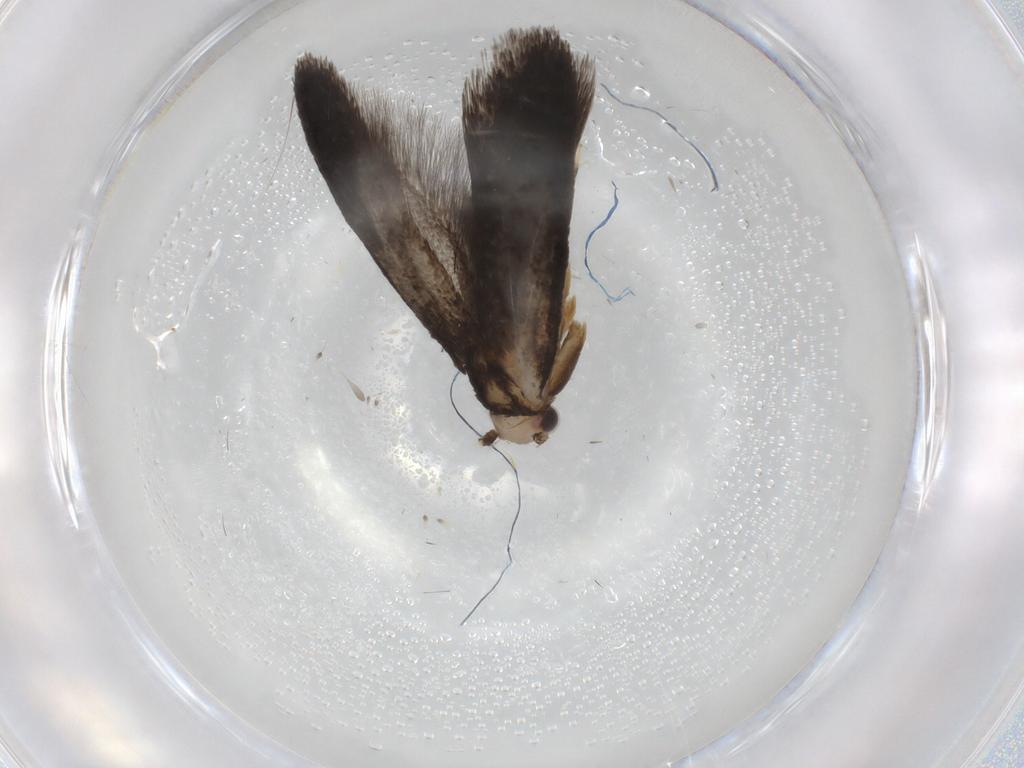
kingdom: Animalia
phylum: Arthropoda
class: Insecta
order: Lepidoptera
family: Tineidae
